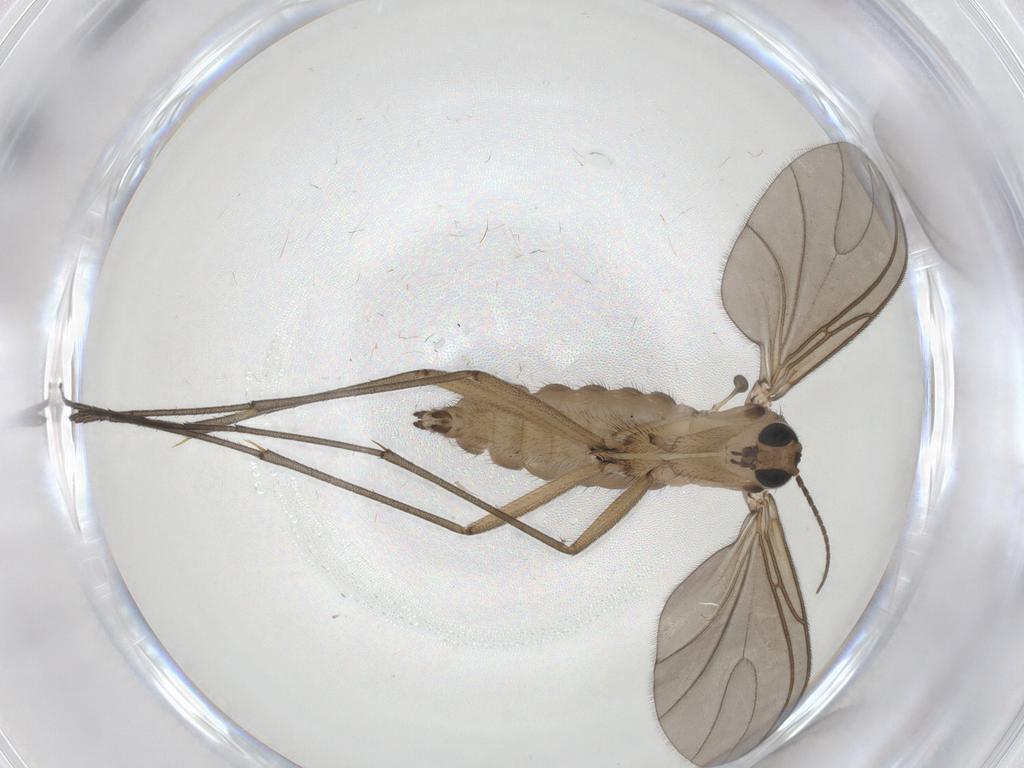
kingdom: Animalia
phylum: Arthropoda
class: Insecta
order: Diptera
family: Sciaridae
